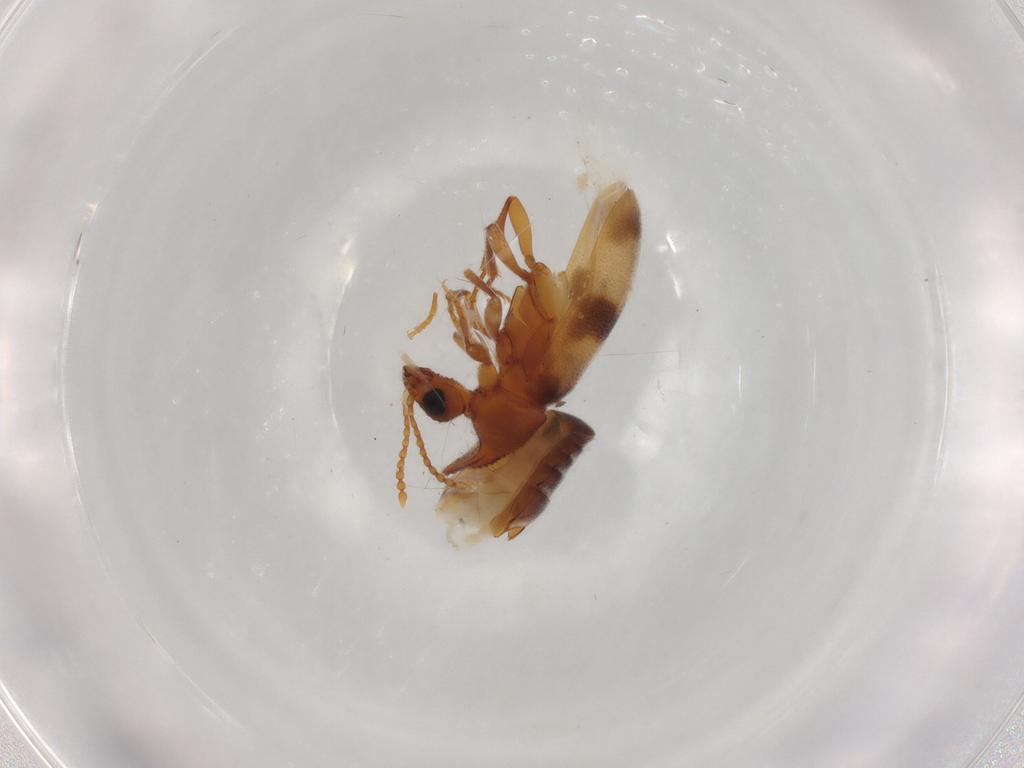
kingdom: Animalia
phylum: Arthropoda
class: Insecta
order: Coleoptera
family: Anthicidae
